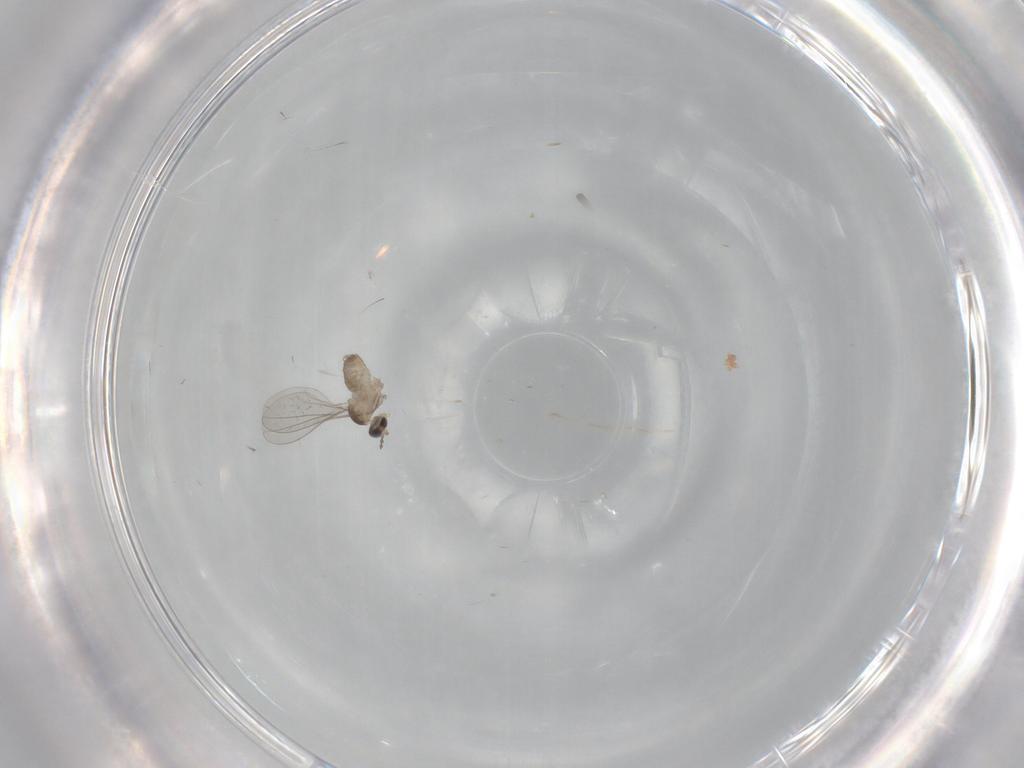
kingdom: Animalia
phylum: Arthropoda
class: Insecta
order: Diptera
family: Cecidomyiidae
